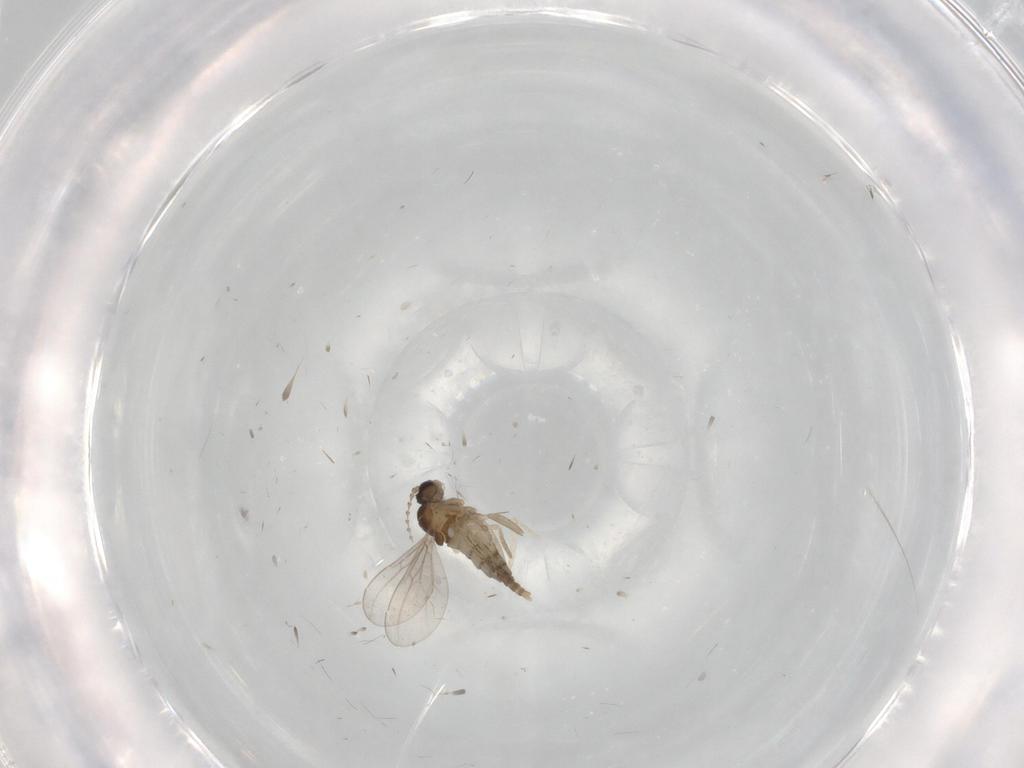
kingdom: Animalia
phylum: Arthropoda
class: Insecta
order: Diptera
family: Cecidomyiidae
